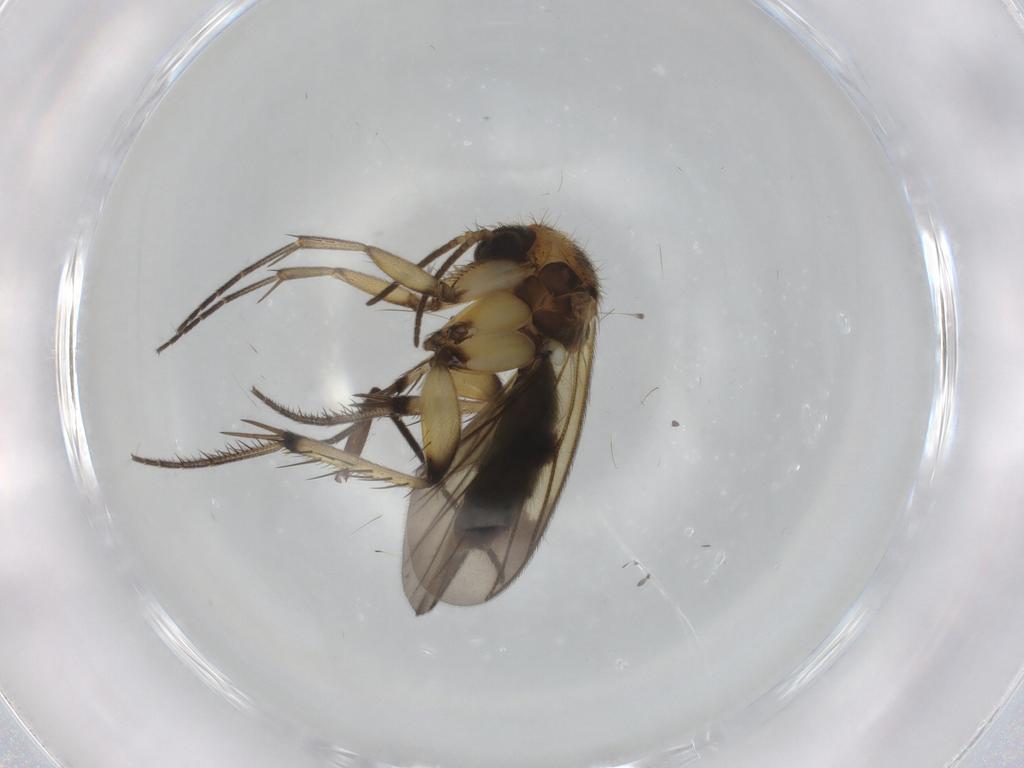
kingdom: Animalia
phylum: Arthropoda
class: Insecta
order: Diptera
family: Mycetophilidae
